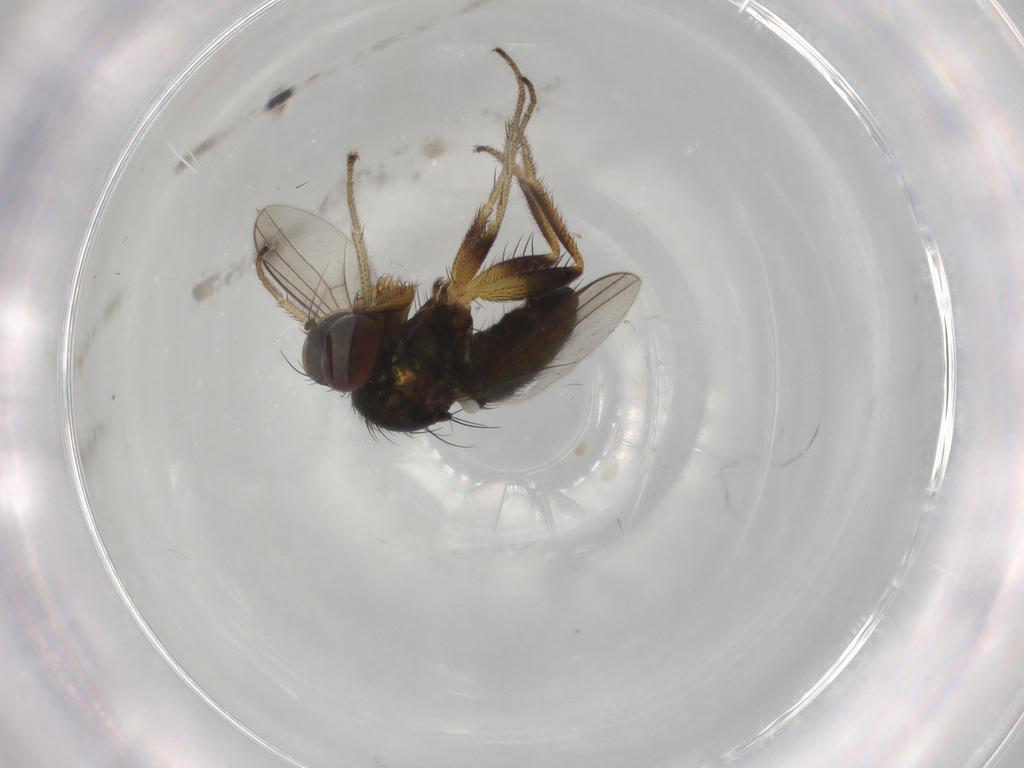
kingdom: Animalia
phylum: Arthropoda
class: Insecta
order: Diptera
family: Dolichopodidae
